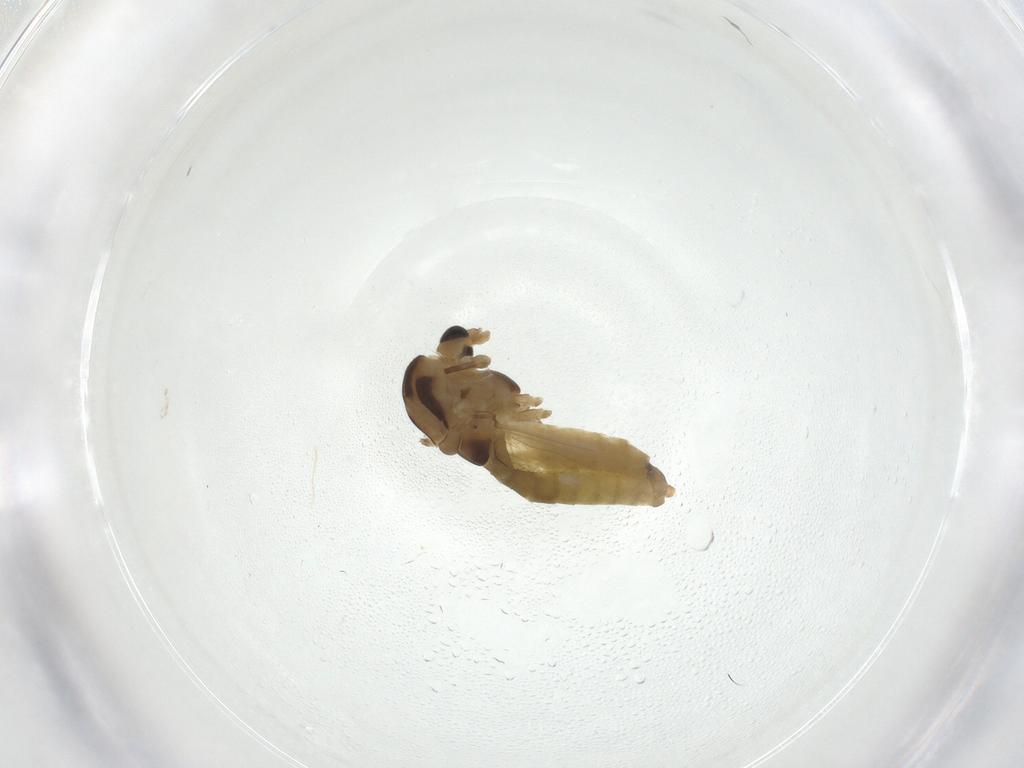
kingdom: Animalia
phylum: Arthropoda
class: Insecta
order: Diptera
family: Chironomidae
